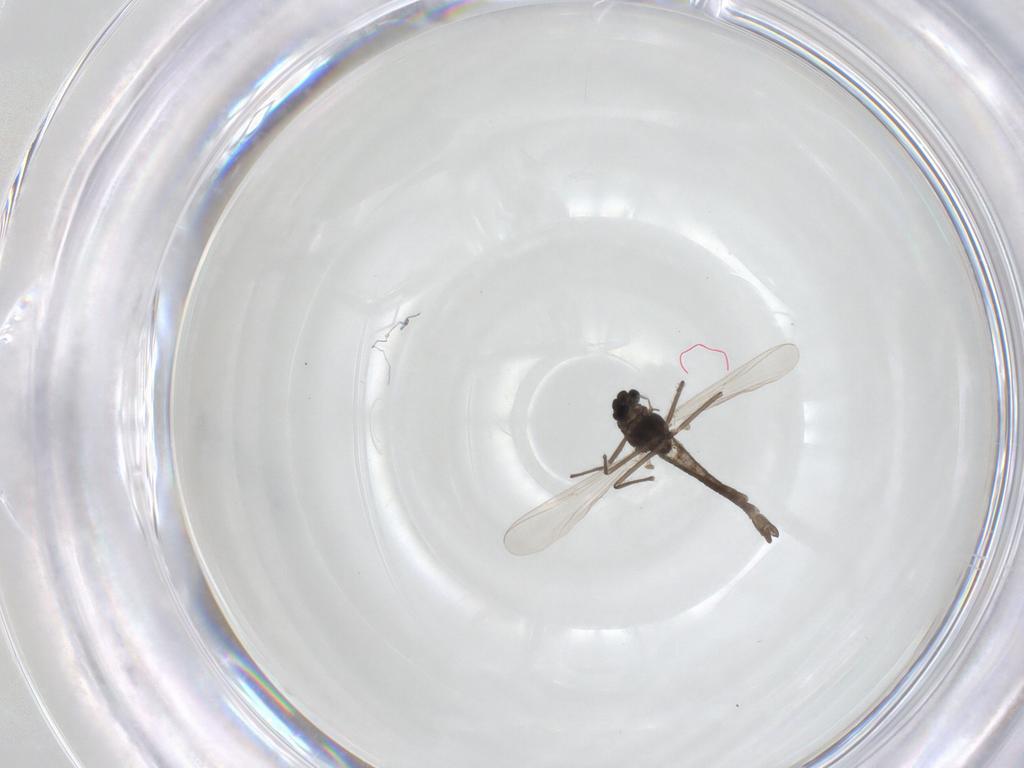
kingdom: Animalia
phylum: Arthropoda
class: Insecta
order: Diptera
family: Chironomidae
